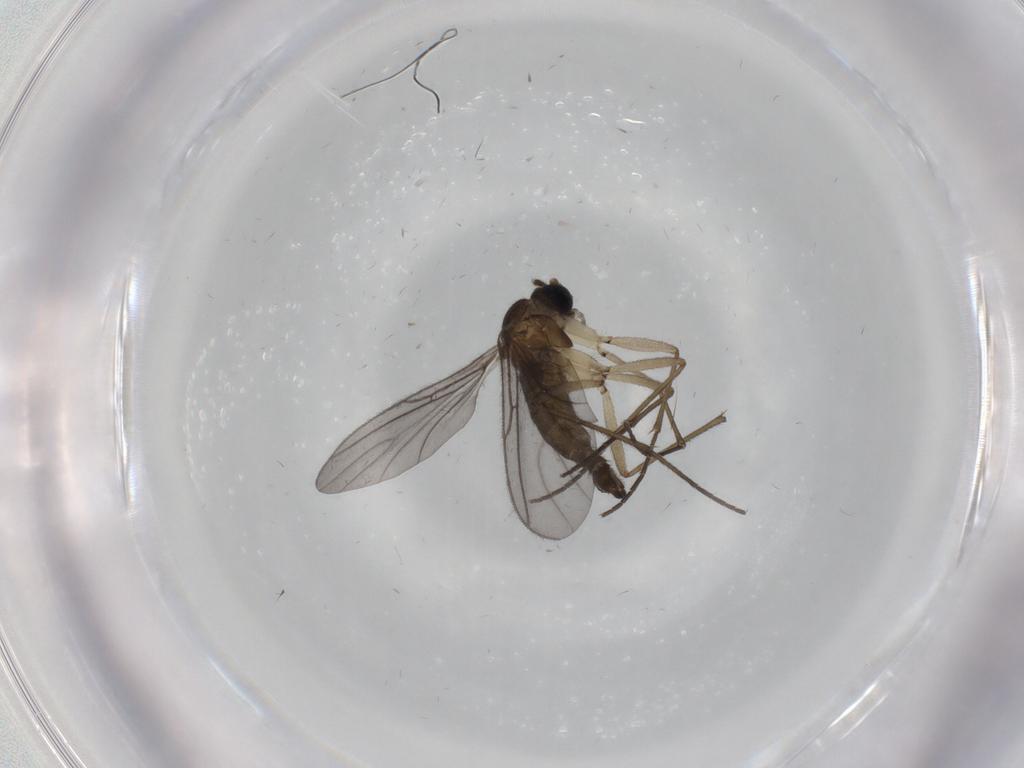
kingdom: Animalia
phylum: Arthropoda
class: Insecta
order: Diptera
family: Sciaridae
